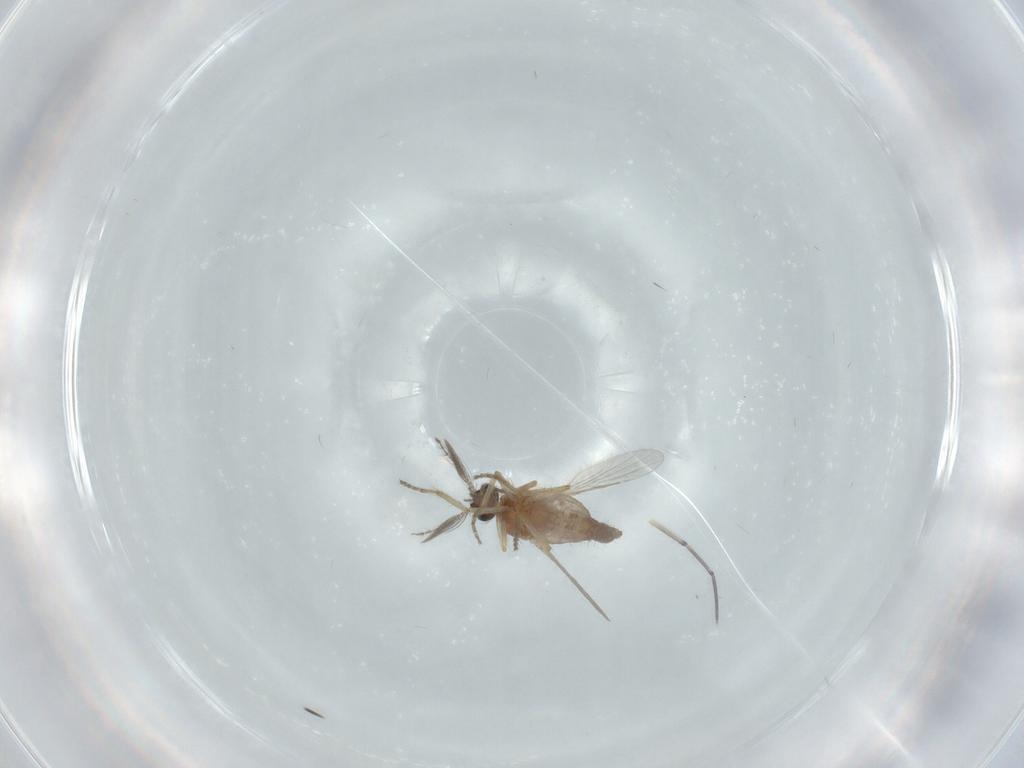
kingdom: Animalia
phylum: Arthropoda
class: Insecta
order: Diptera
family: Ceratopogonidae
